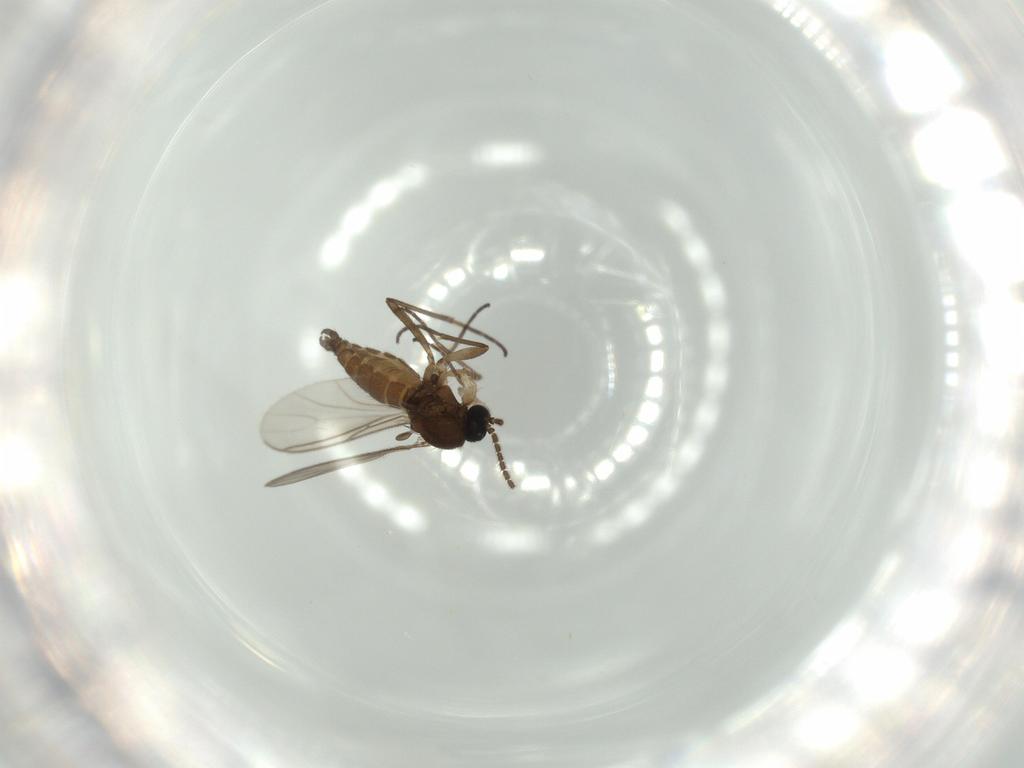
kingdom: Animalia
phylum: Arthropoda
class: Insecta
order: Diptera
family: Sciaridae
